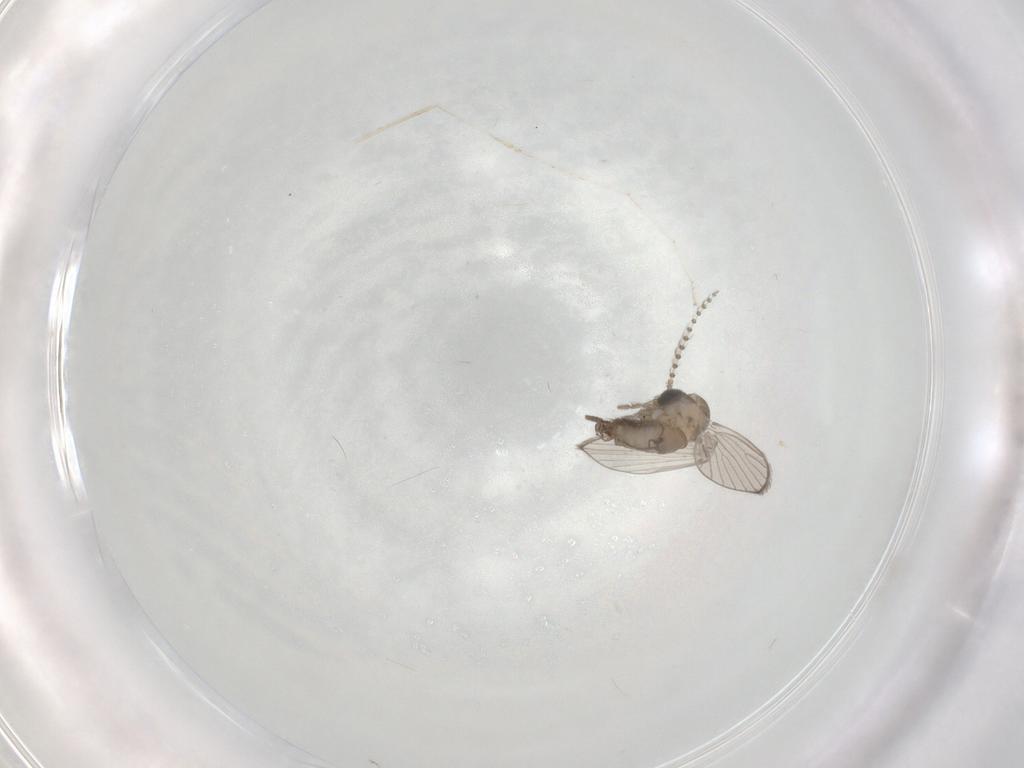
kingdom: Animalia
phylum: Arthropoda
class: Insecta
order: Diptera
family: Psychodidae
